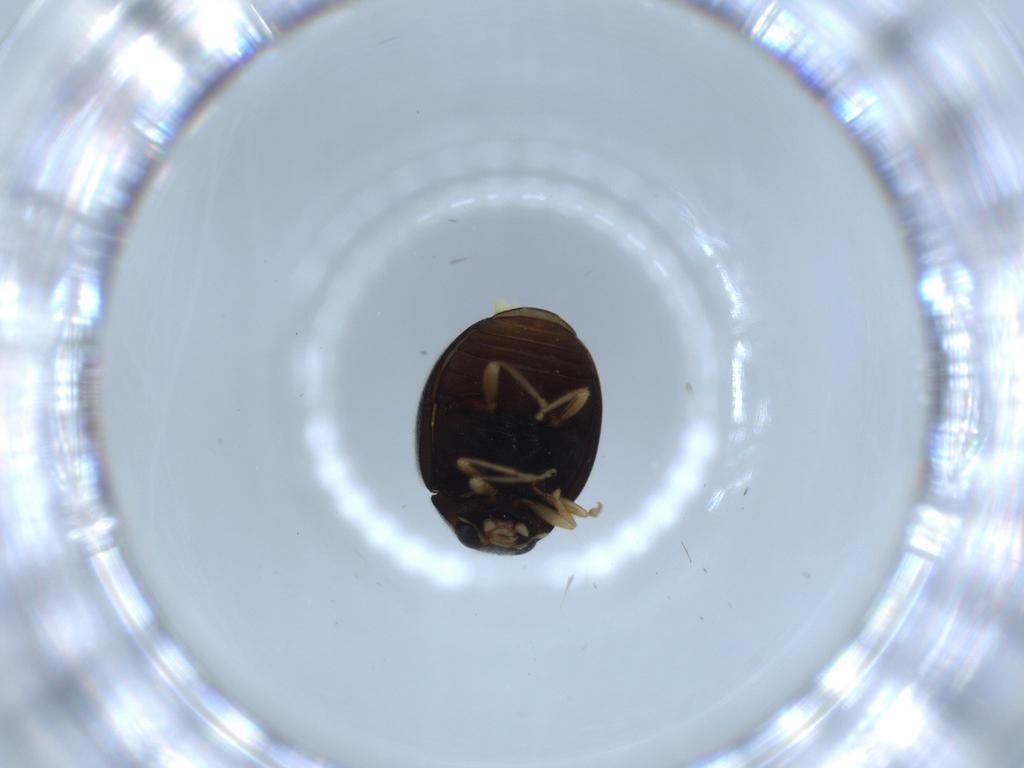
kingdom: Animalia
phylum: Arthropoda
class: Insecta
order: Coleoptera
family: Coccinellidae
